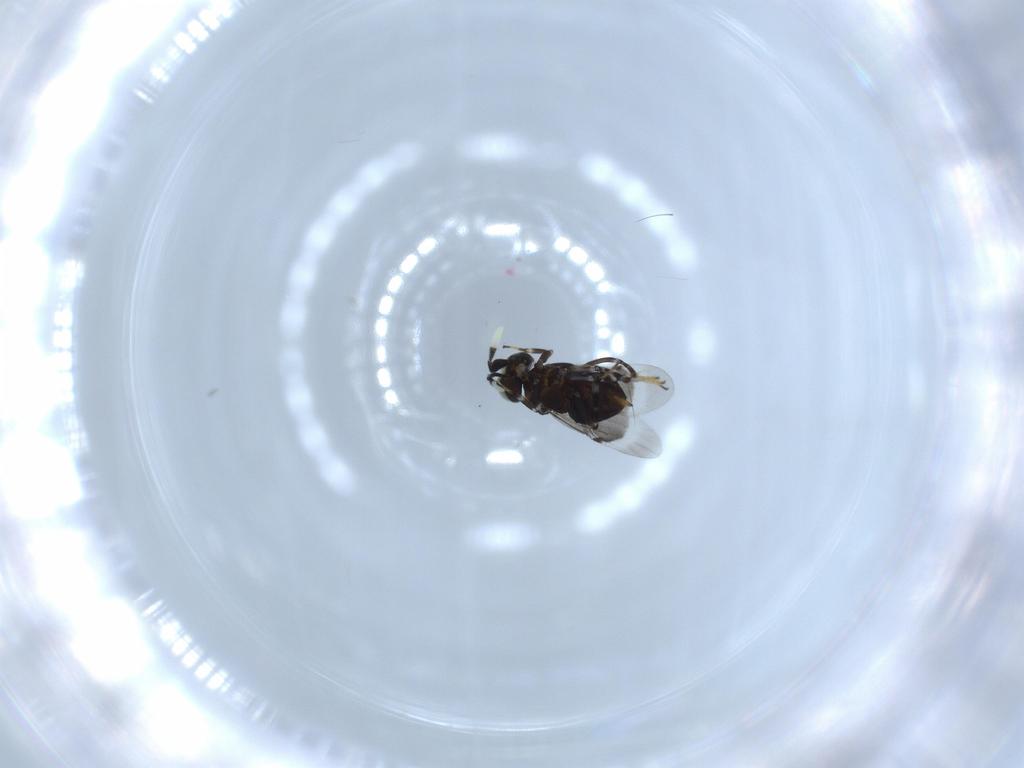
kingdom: Animalia
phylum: Arthropoda
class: Insecta
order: Hymenoptera
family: Encyrtidae
